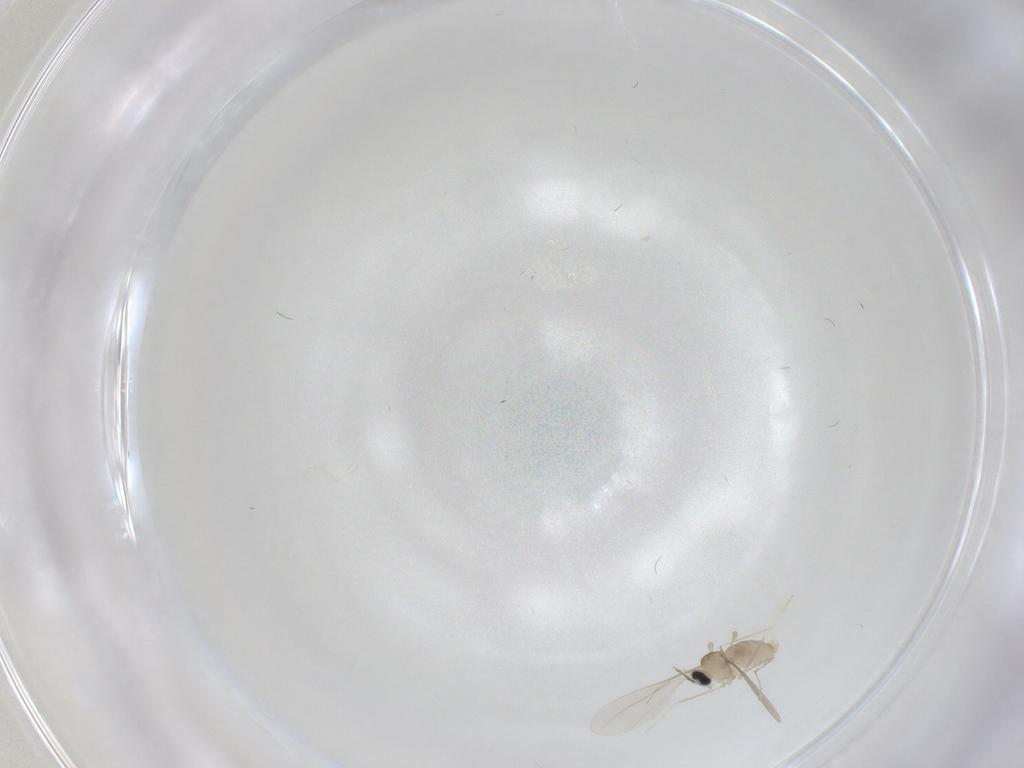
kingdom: Animalia
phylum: Arthropoda
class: Insecta
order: Diptera
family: Cecidomyiidae
